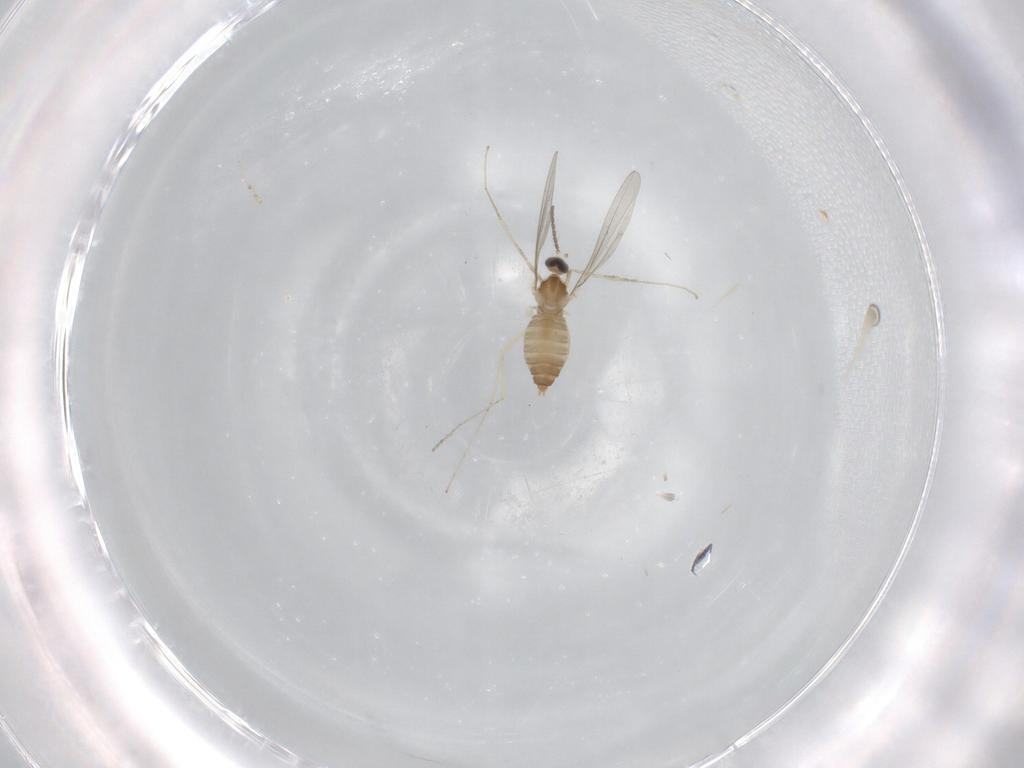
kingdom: Animalia
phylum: Arthropoda
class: Insecta
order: Diptera
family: Cecidomyiidae
